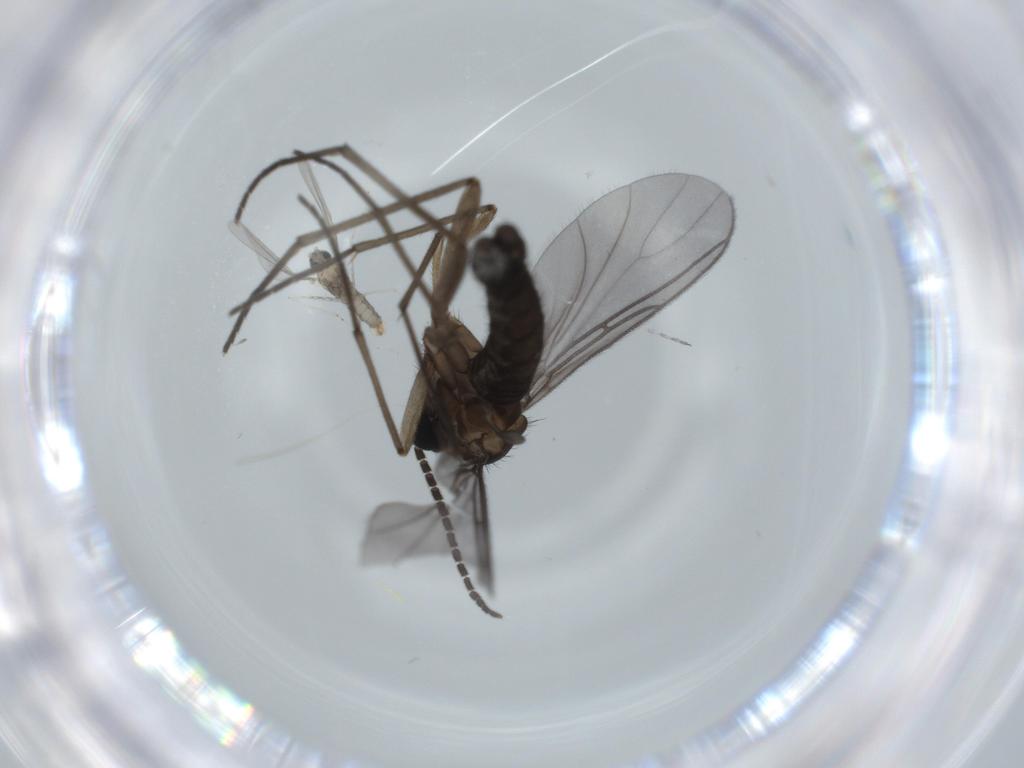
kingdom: Animalia
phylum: Arthropoda
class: Insecta
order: Diptera
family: Sciaridae
